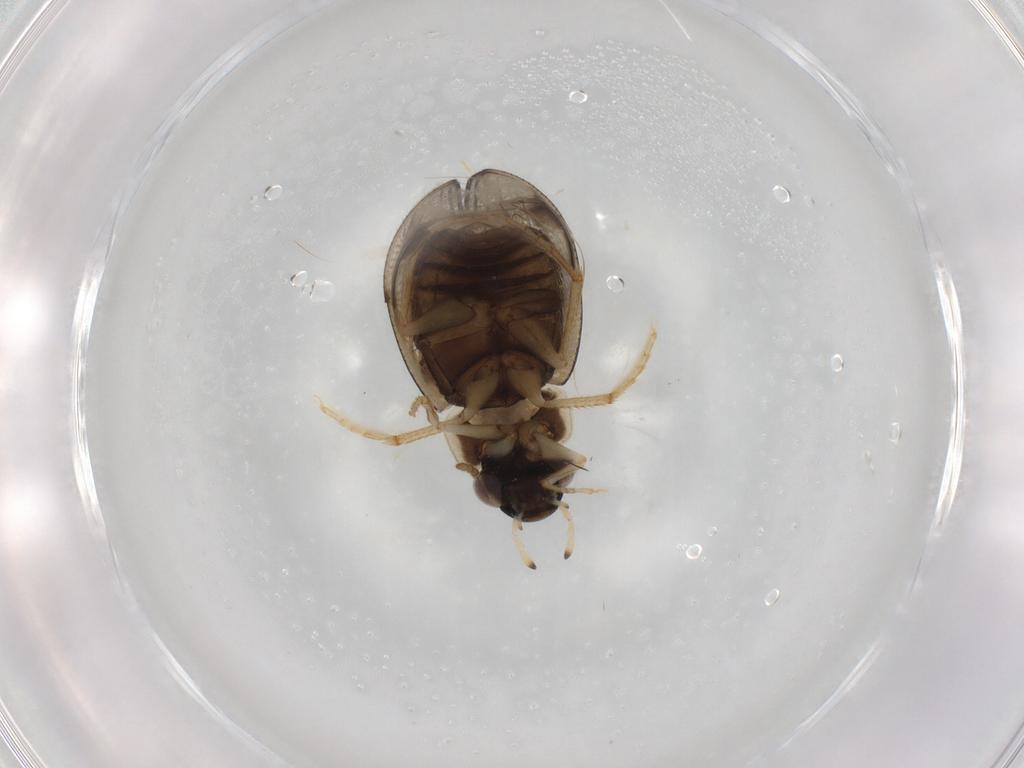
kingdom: Animalia
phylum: Arthropoda
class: Insecta
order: Coleoptera
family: Hydrophilidae
